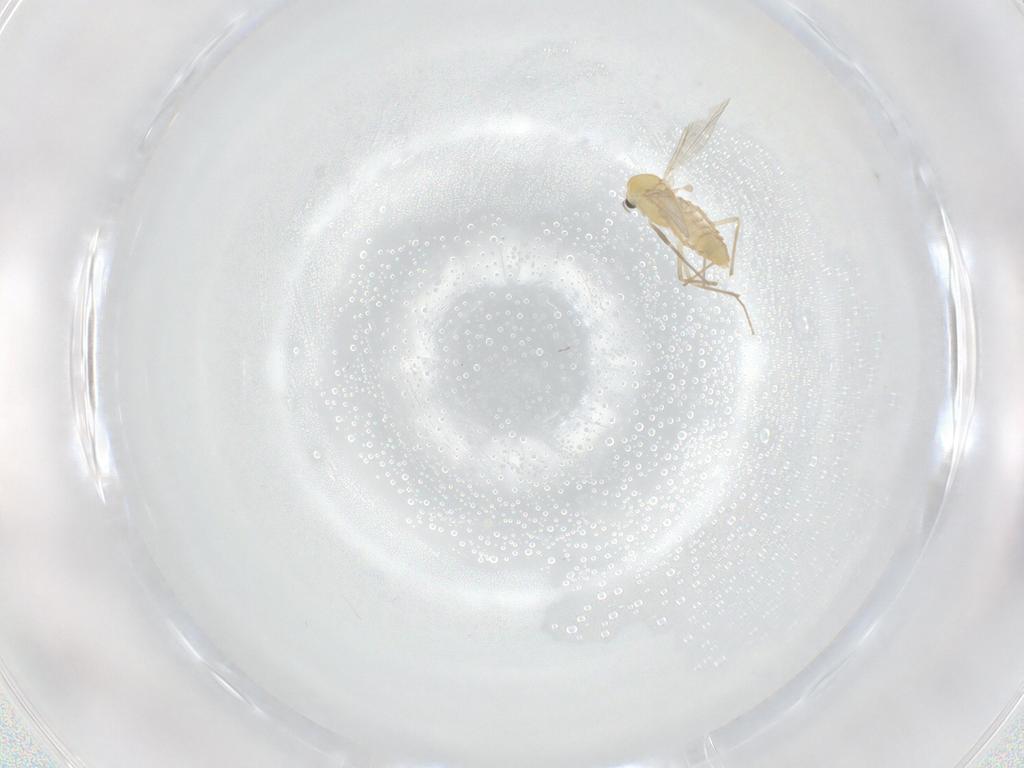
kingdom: Animalia
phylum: Arthropoda
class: Insecta
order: Diptera
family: Chironomidae
